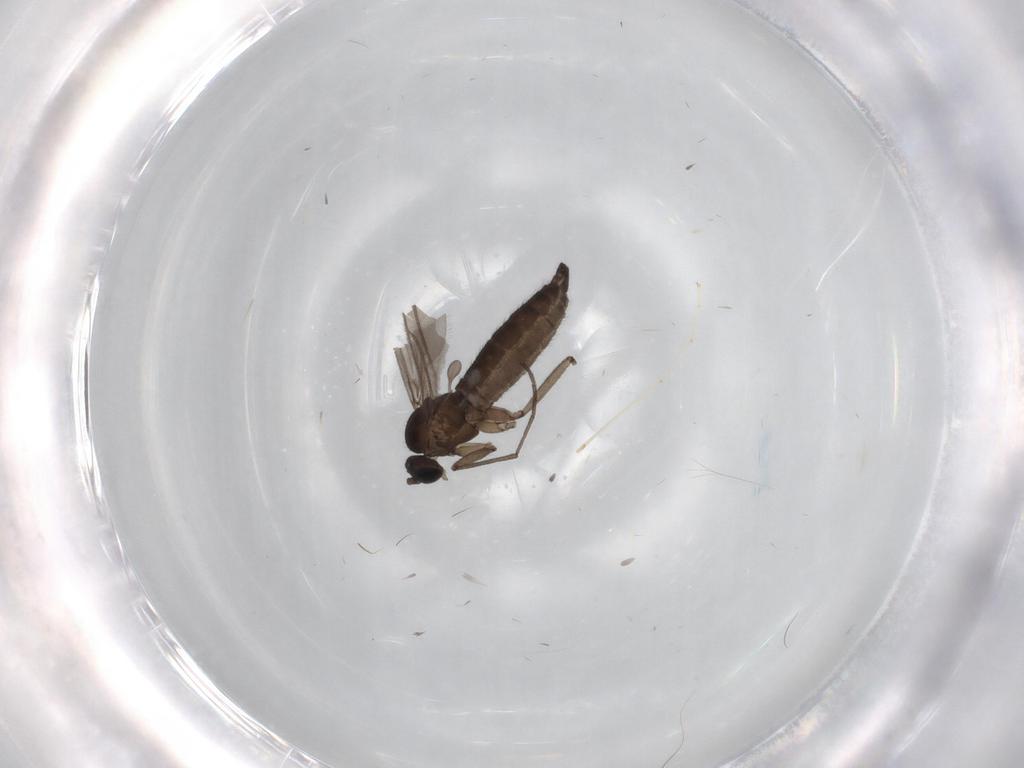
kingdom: Animalia
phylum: Arthropoda
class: Insecta
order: Diptera
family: Sciaridae
